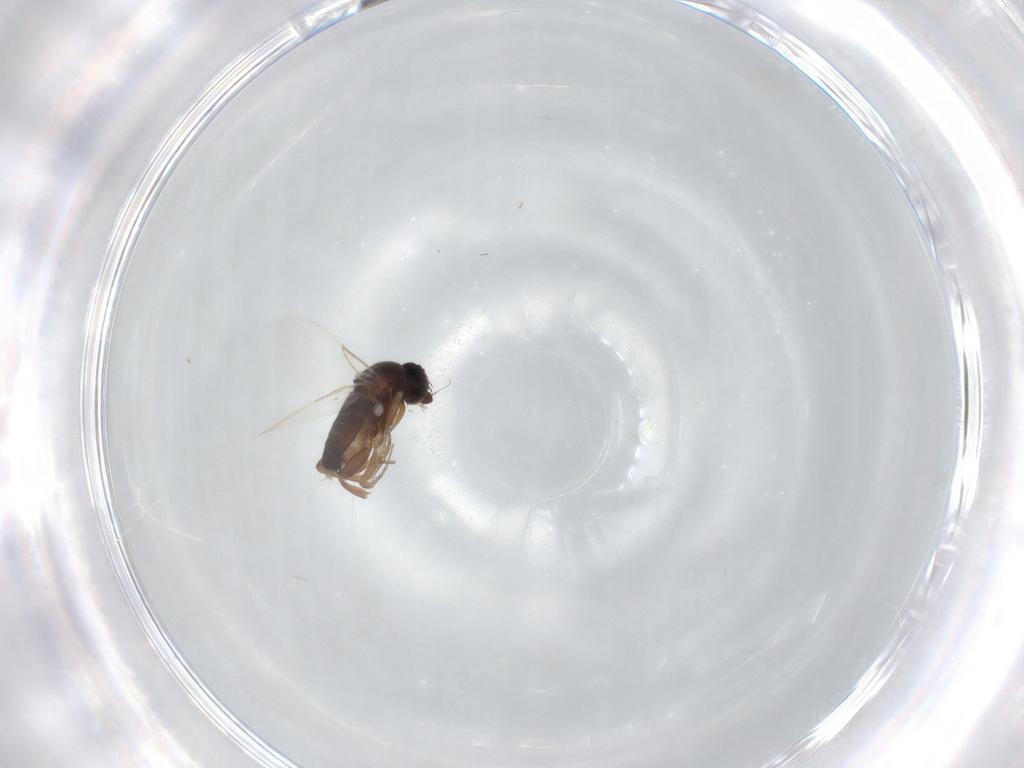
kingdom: Animalia
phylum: Arthropoda
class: Insecta
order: Diptera
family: Phoridae
